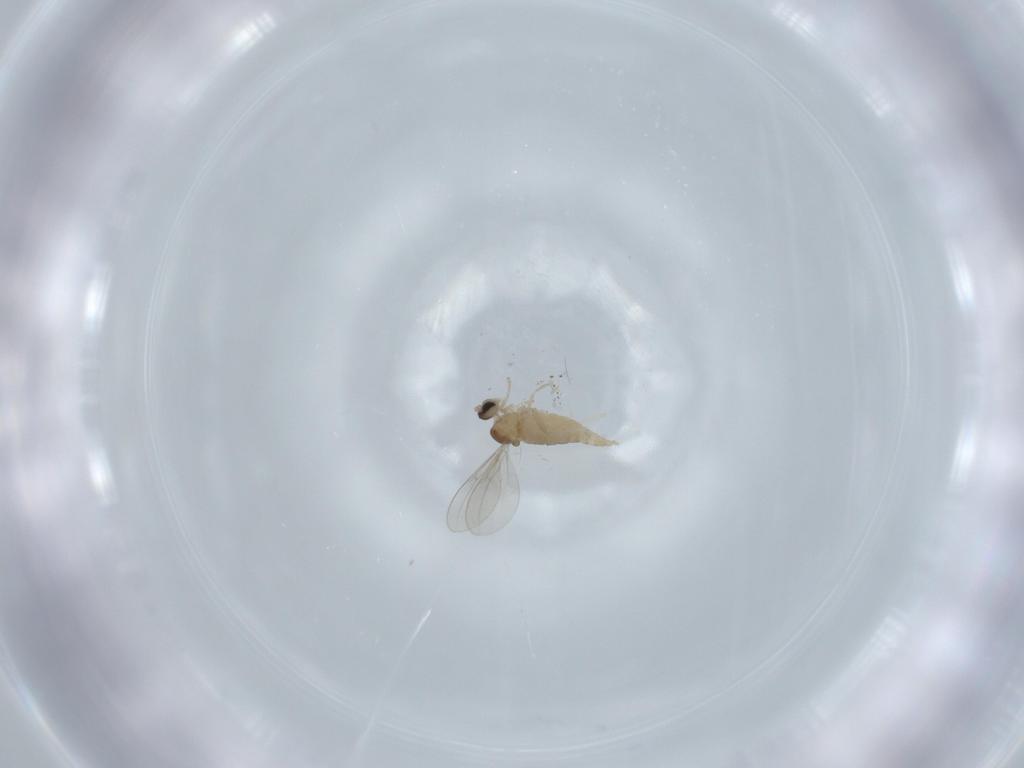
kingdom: Animalia
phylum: Arthropoda
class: Insecta
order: Diptera
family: Cecidomyiidae
